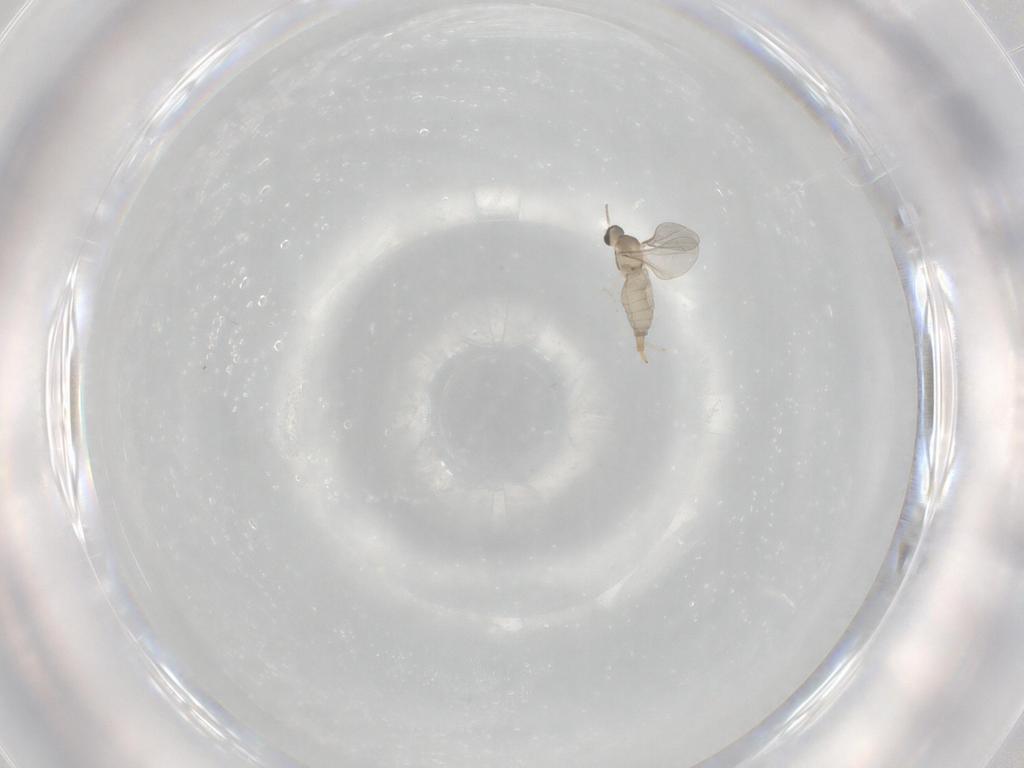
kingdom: Animalia
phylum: Arthropoda
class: Insecta
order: Diptera
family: Cecidomyiidae
